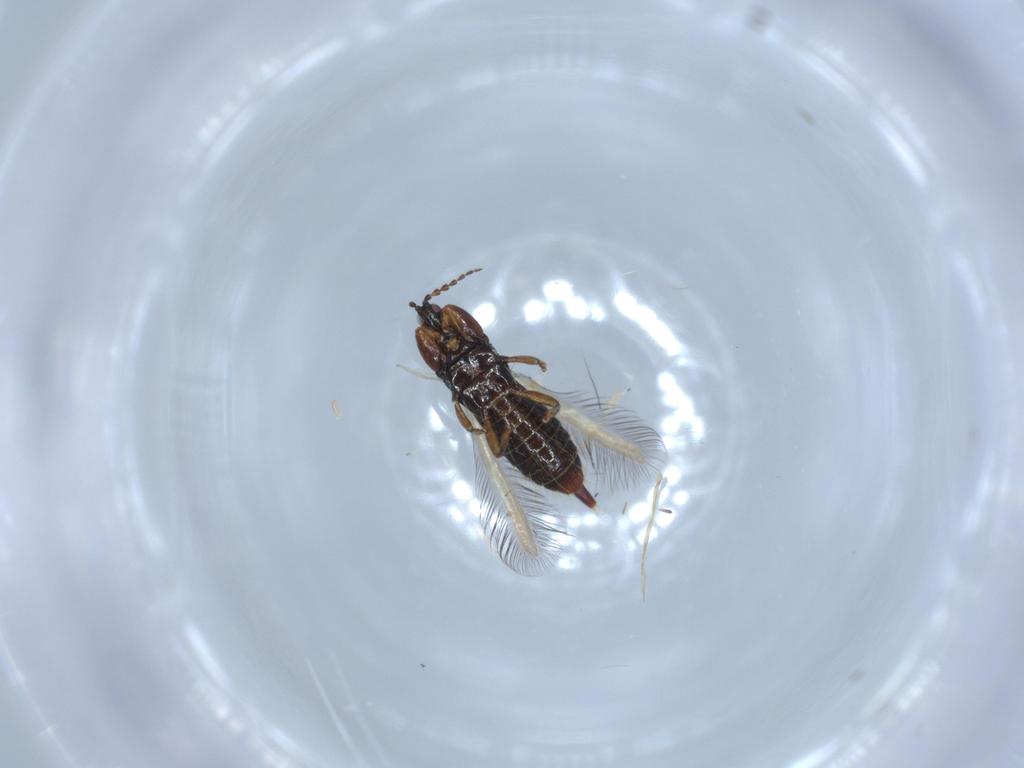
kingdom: Animalia
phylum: Arthropoda
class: Insecta
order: Thysanoptera
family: Phlaeothripidae
